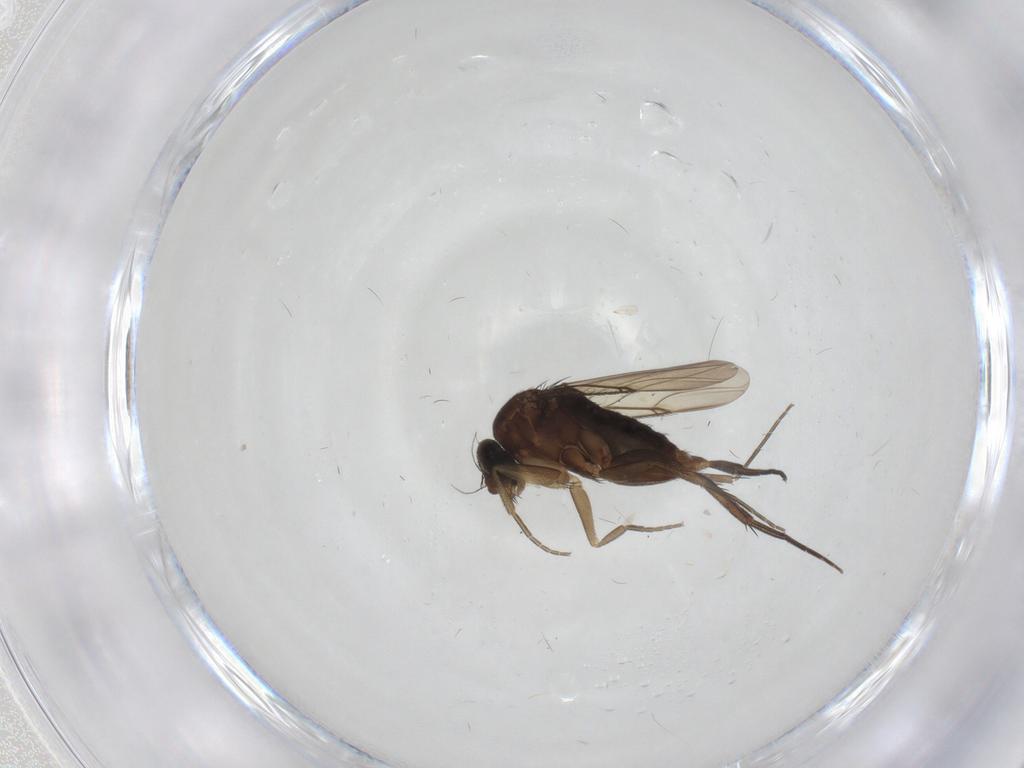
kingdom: Animalia
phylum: Arthropoda
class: Insecta
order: Diptera
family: Phoridae
